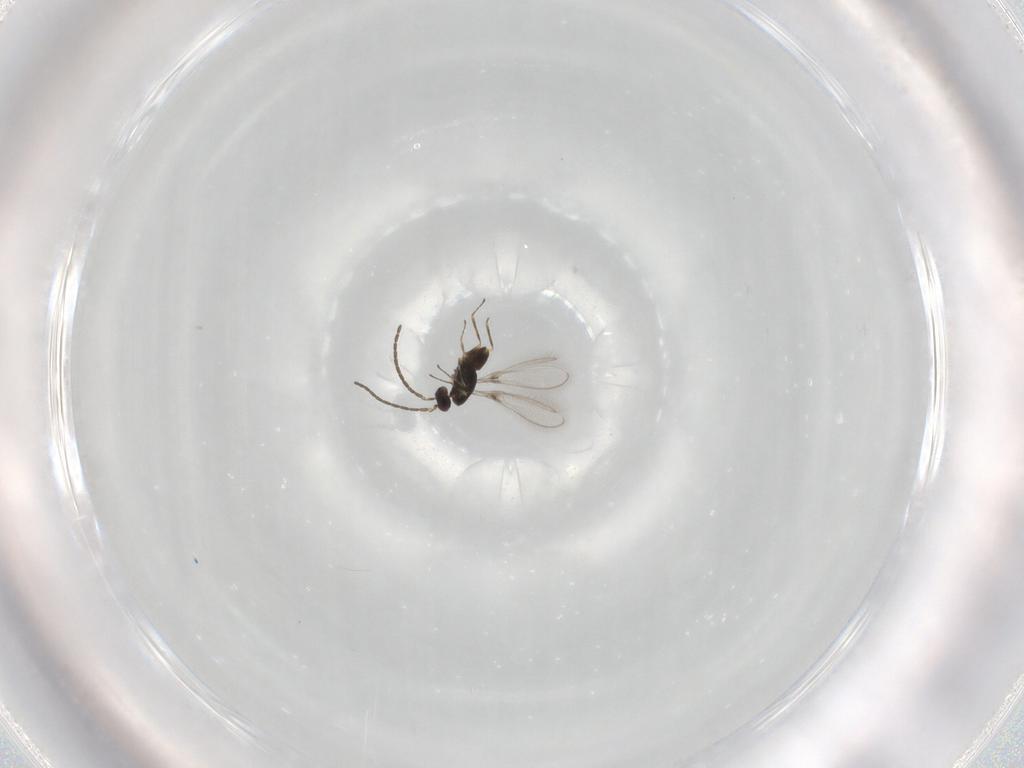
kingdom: Animalia
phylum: Arthropoda
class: Insecta
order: Hymenoptera
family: Mymaridae
